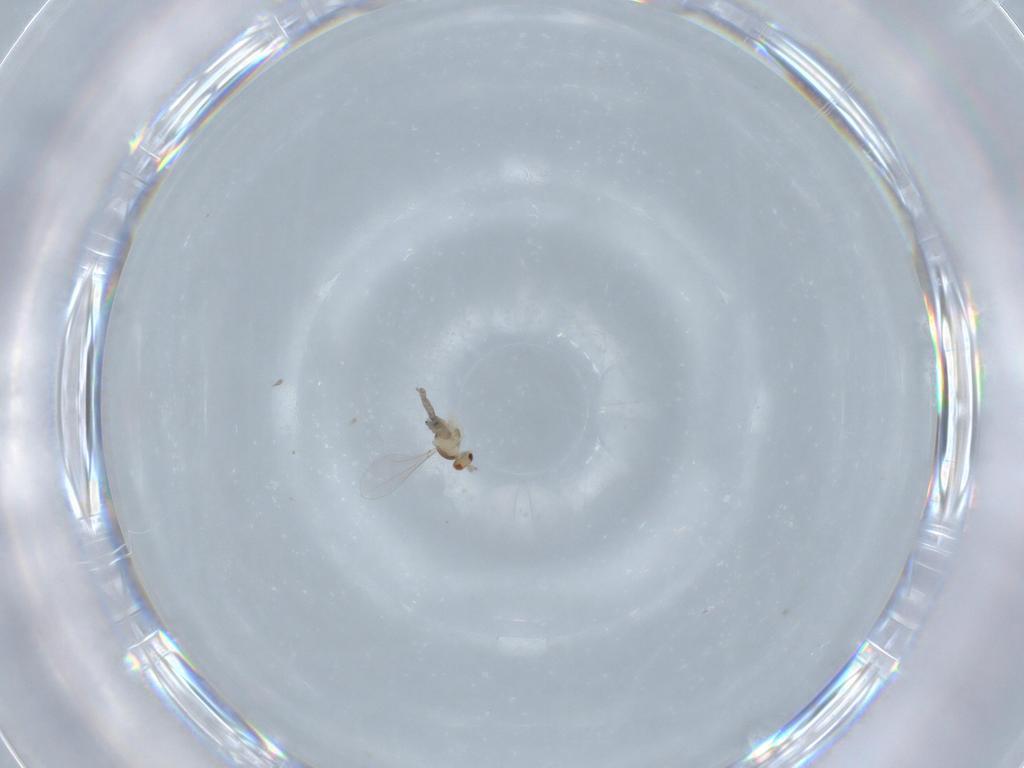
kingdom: Animalia
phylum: Arthropoda
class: Insecta
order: Diptera
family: Cecidomyiidae
